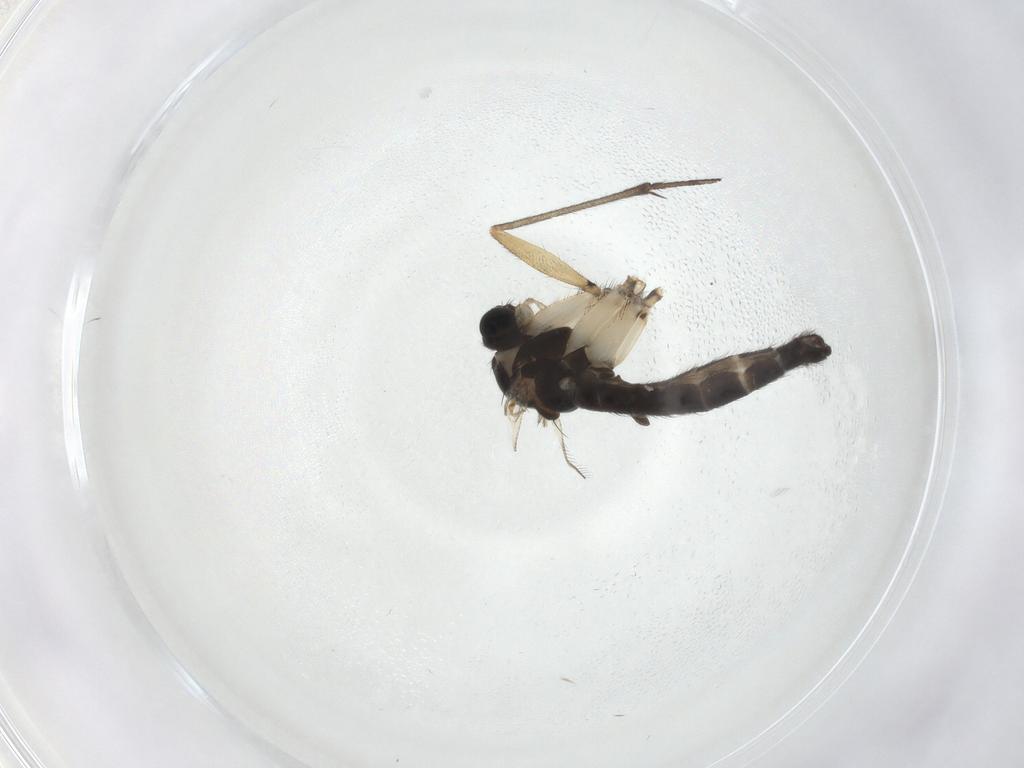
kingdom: Animalia
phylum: Arthropoda
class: Insecta
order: Diptera
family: Sciaridae
